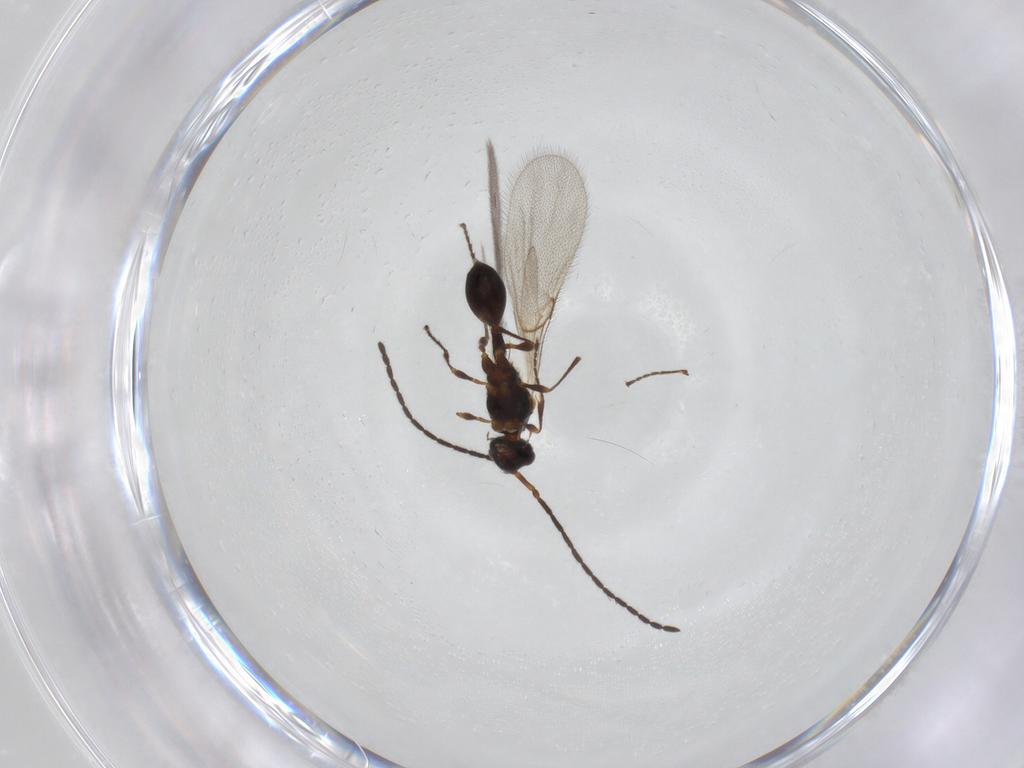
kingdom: Animalia
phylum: Arthropoda
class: Insecta
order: Hymenoptera
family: Diapriidae
